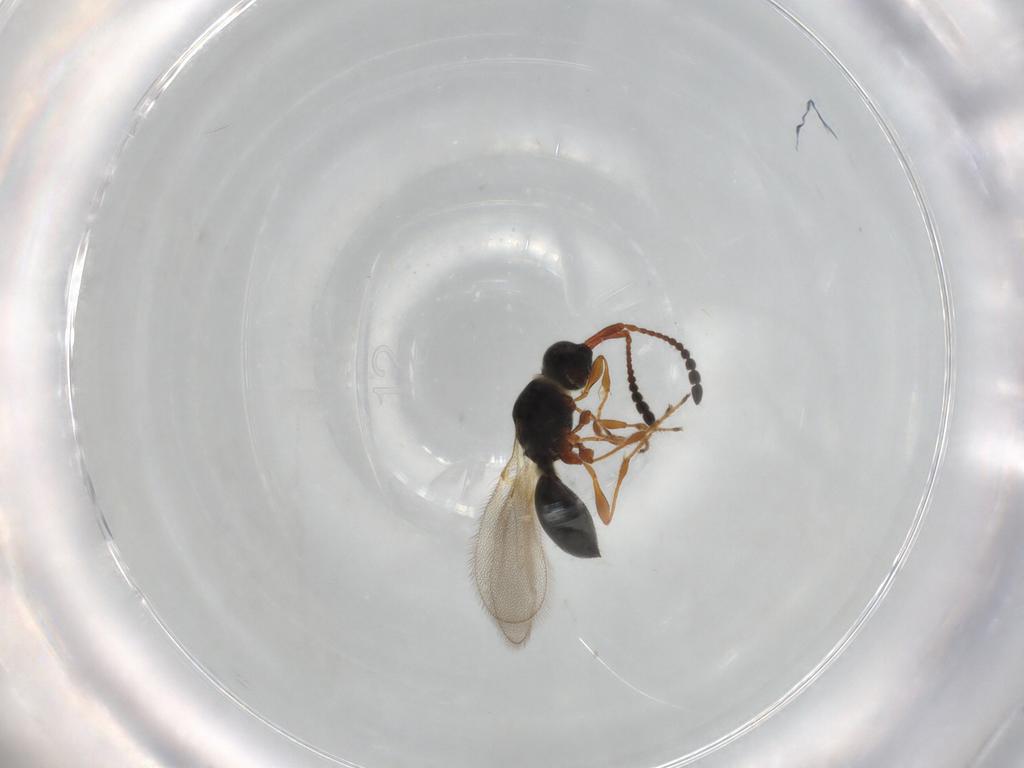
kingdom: Animalia
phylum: Arthropoda
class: Insecta
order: Hymenoptera
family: Diapriidae
